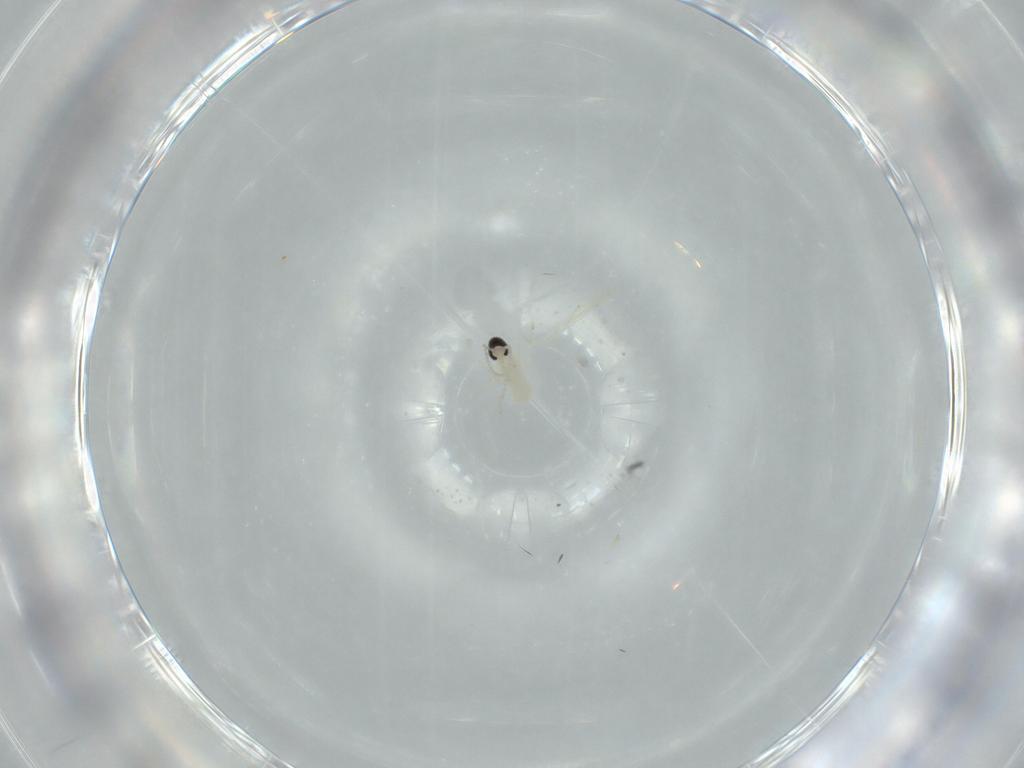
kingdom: Animalia
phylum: Arthropoda
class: Insecta
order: Diptera
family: Cecidomyiidae
